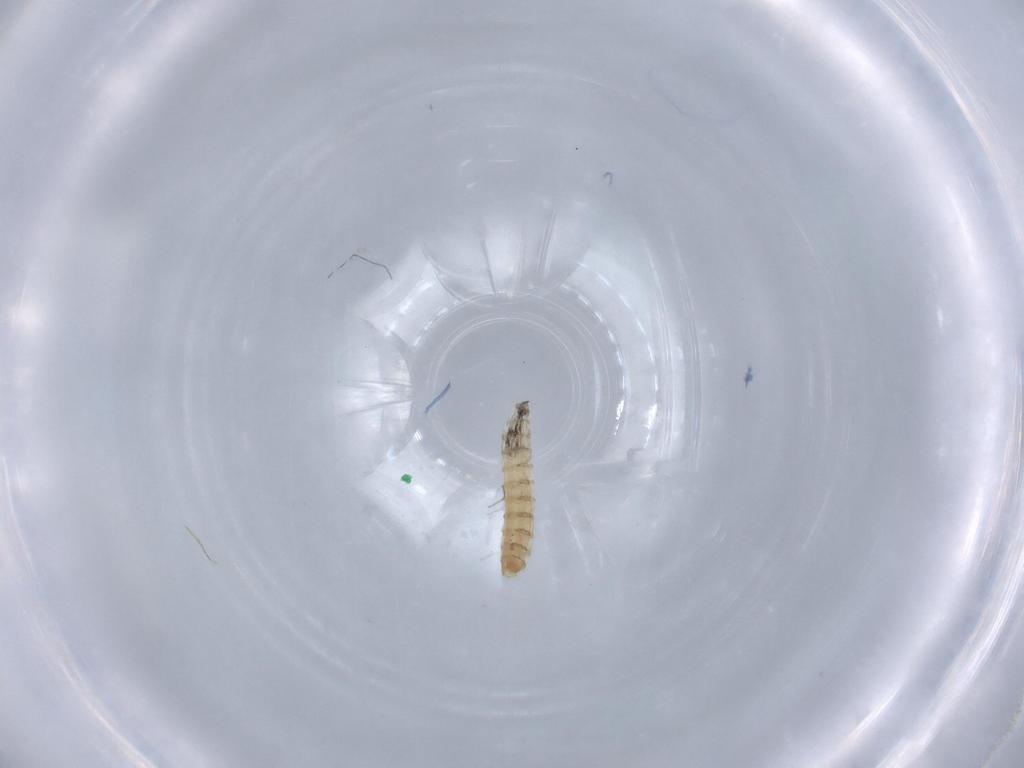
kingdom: Animalia
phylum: Arthropoda
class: Insecta
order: Diptera
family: Sarcophagidae
